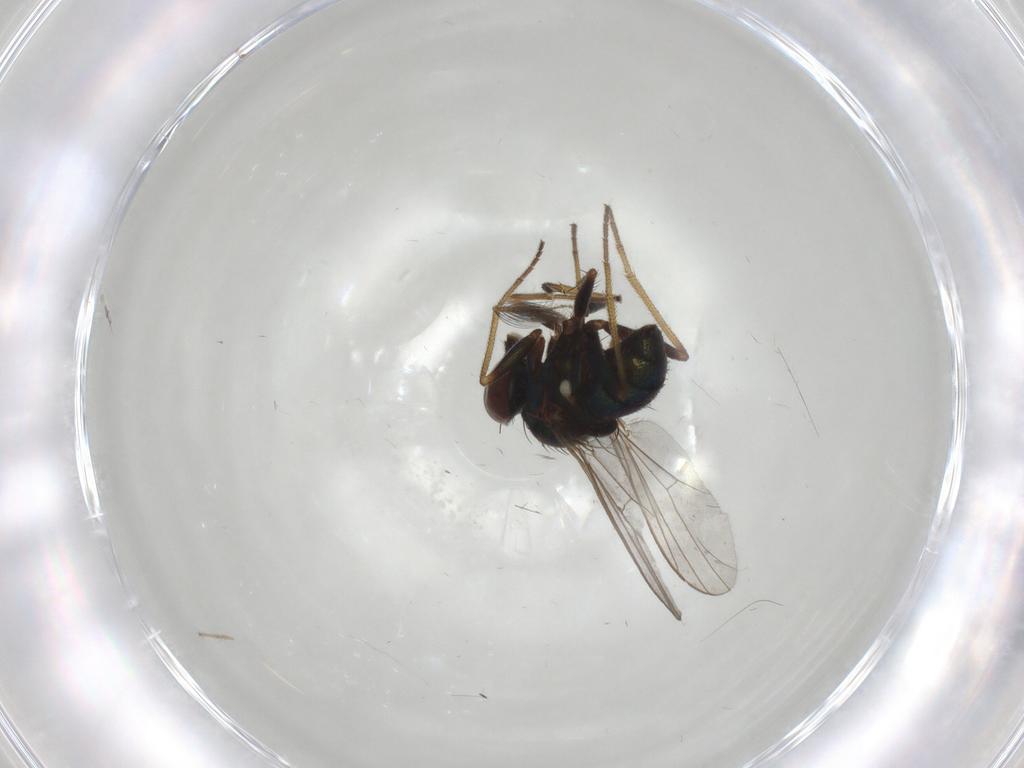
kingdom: Animalia
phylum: Arthropoda
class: Insecta
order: Diptera
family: Dolichopodidae
